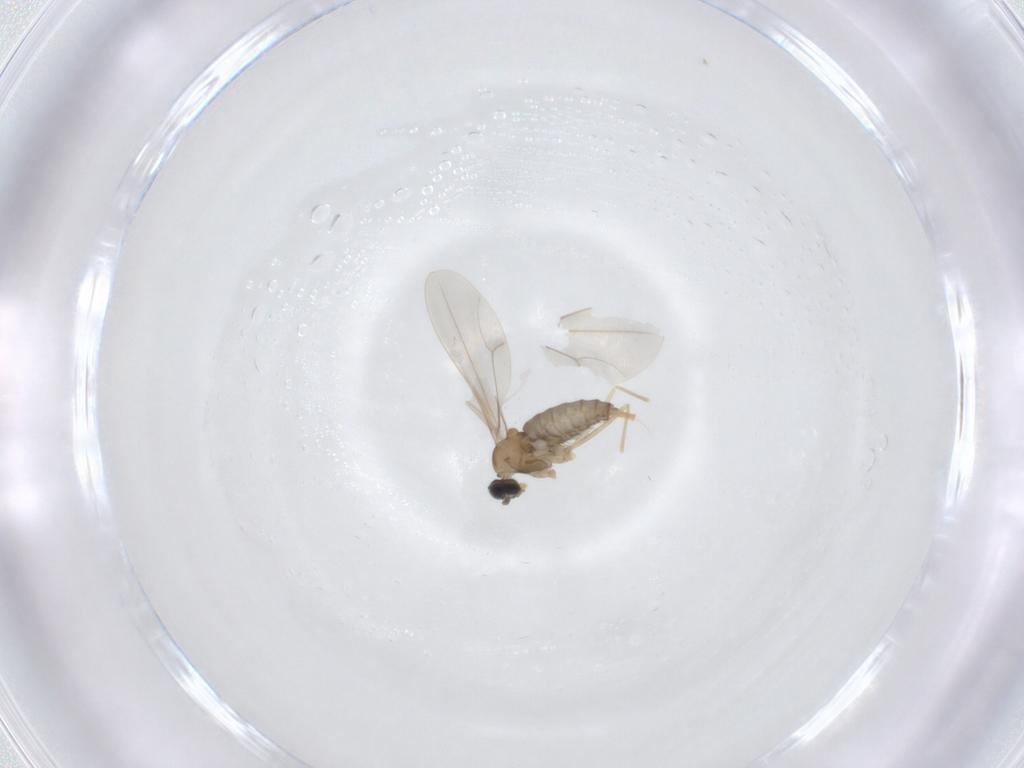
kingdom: Animalia
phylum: Arthropoda
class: Insecta
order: Diptera
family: Cecidomyiidae
